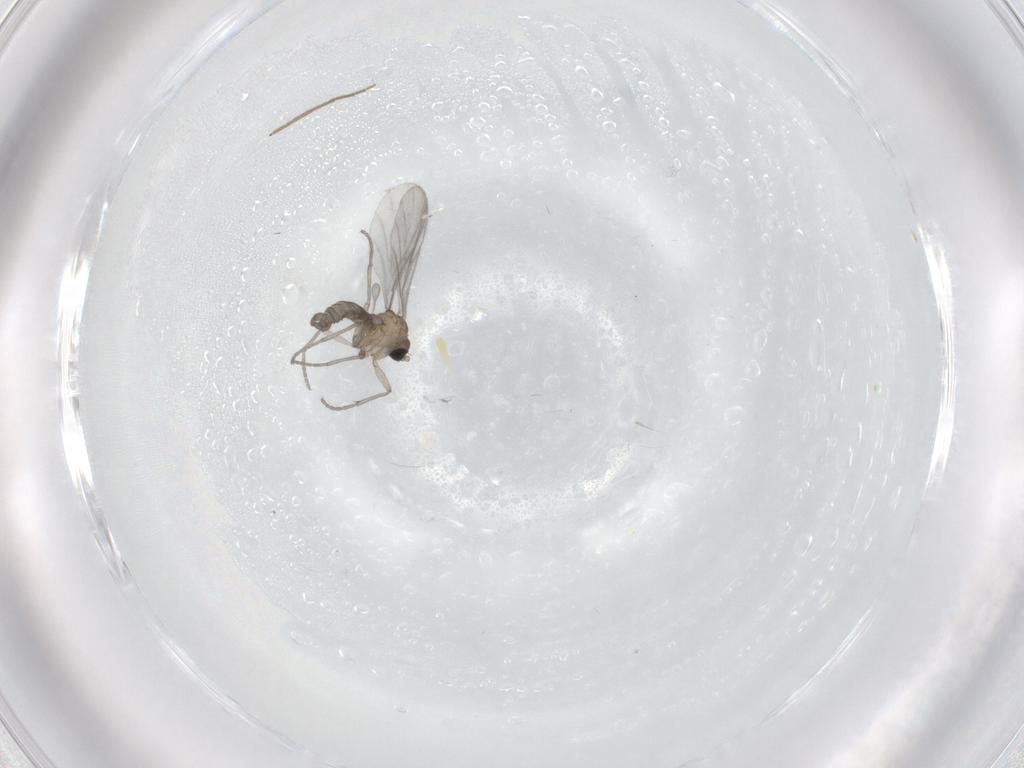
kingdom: Animalia
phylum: Arthropoda
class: Insecta
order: Diptera
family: Sciaridae
